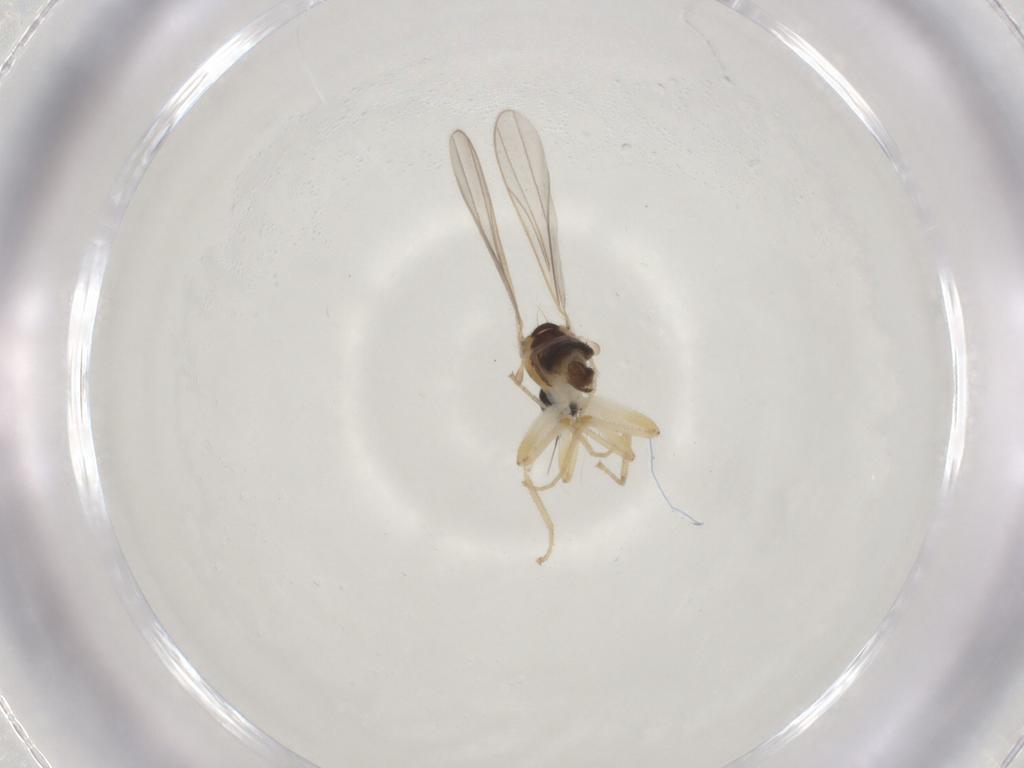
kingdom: Animalia
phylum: Arthropoda
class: Insecta
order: Diptera
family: Hybotidae
